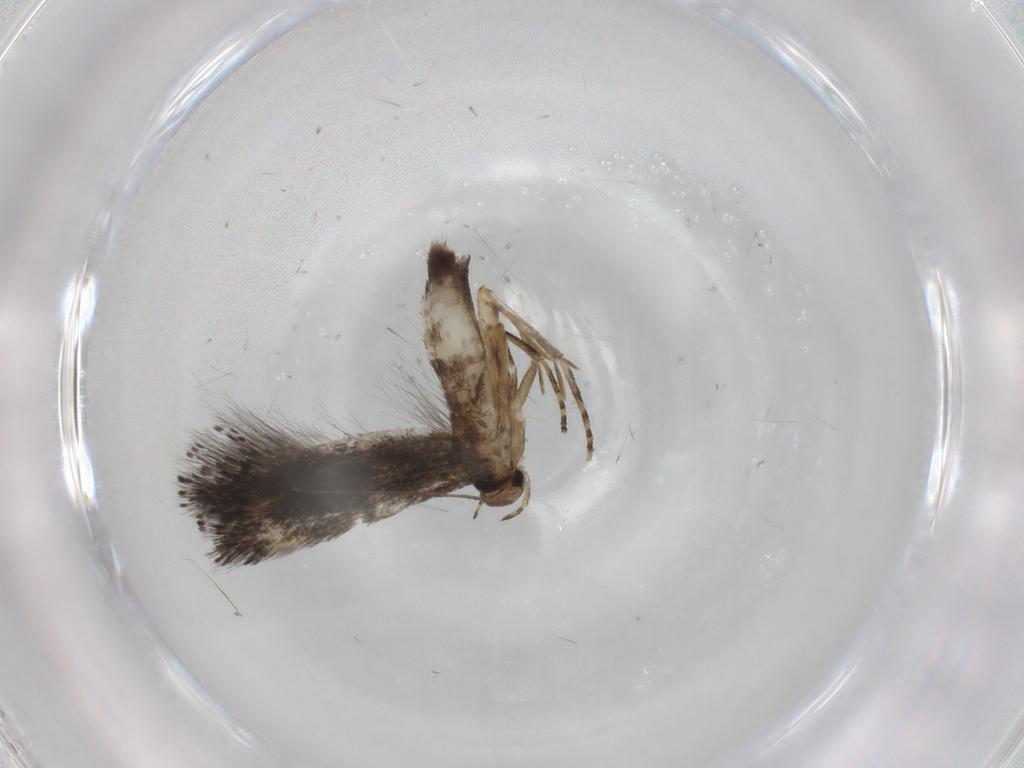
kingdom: Animalia
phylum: Arthropoda
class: Insecta
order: Lepidoptera
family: Elachistidae
